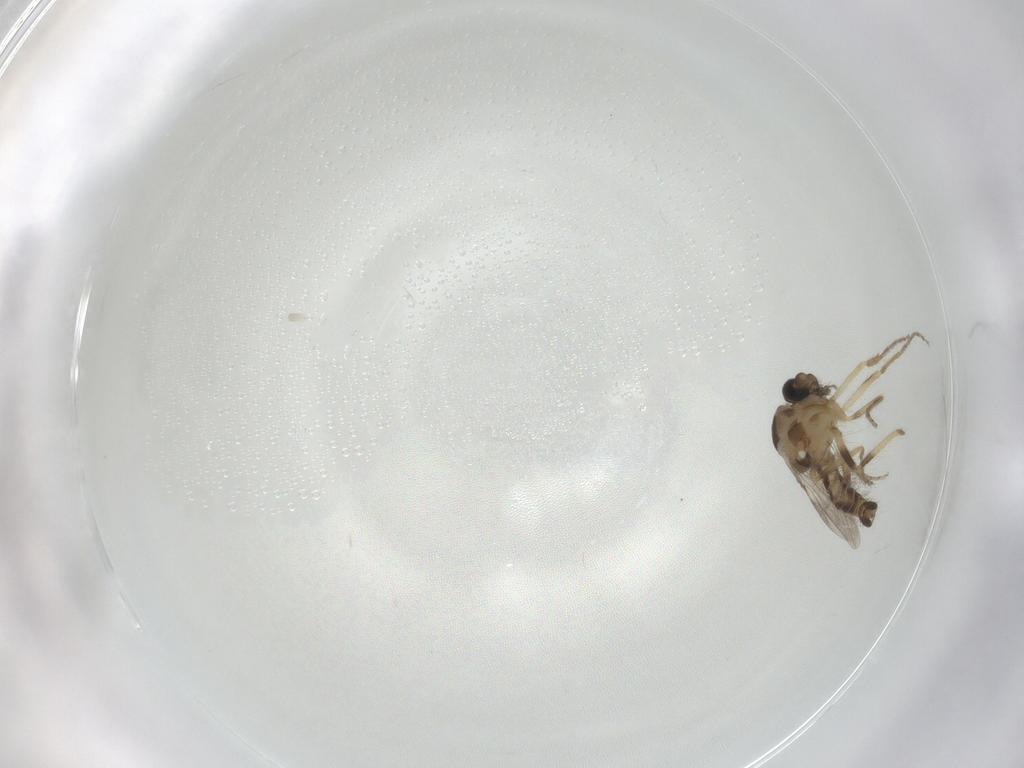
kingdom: Animalia
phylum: Arthropoda
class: Insecta
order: Diptera
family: Ceratopogonidae
